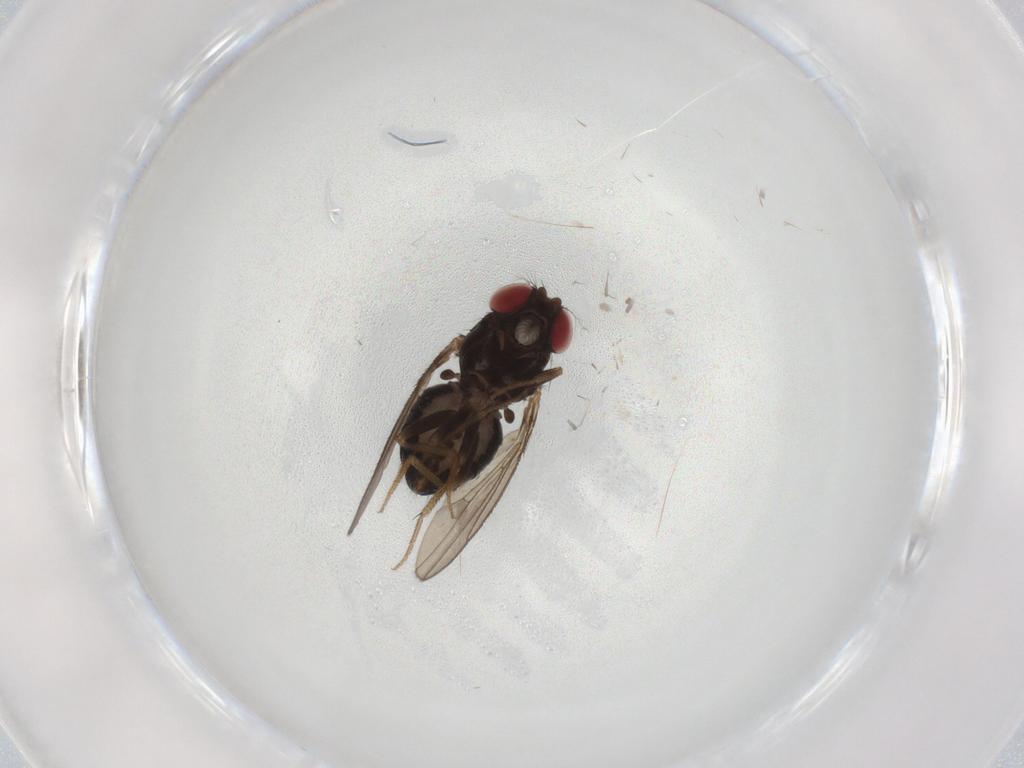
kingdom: Animalia
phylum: Arthropoda
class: Insecta
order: Diptera
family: Drosophilidae
